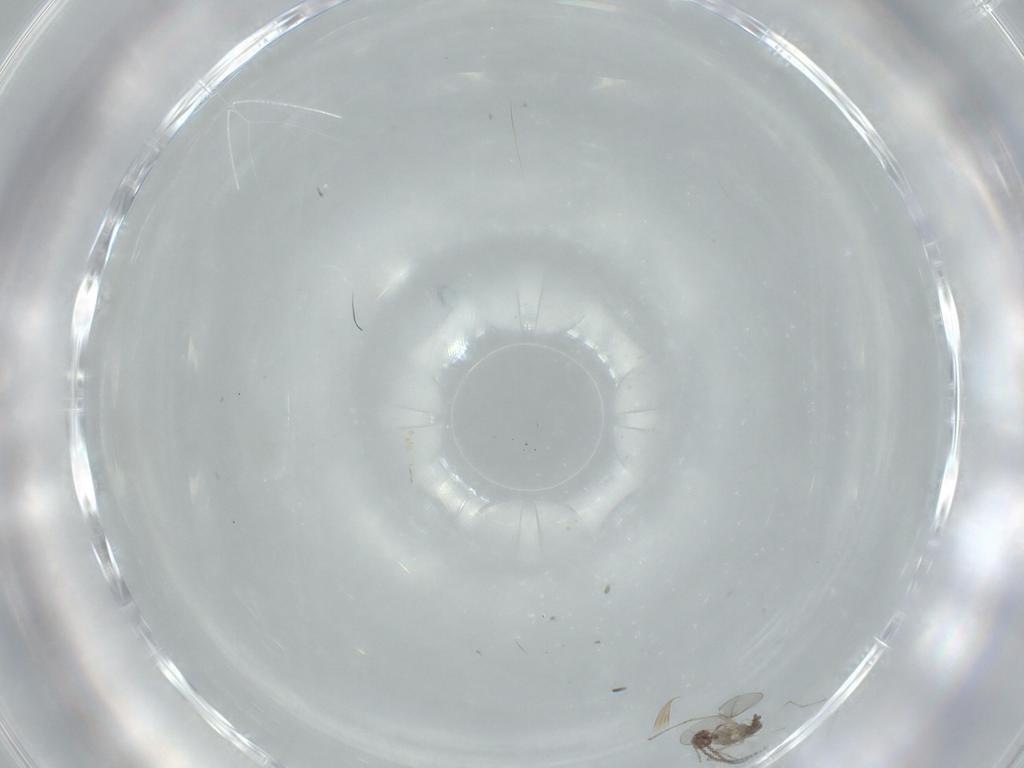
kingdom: Animalia
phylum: Arthropoda
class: Insecta
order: Diptera
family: Cecidomyiidae
